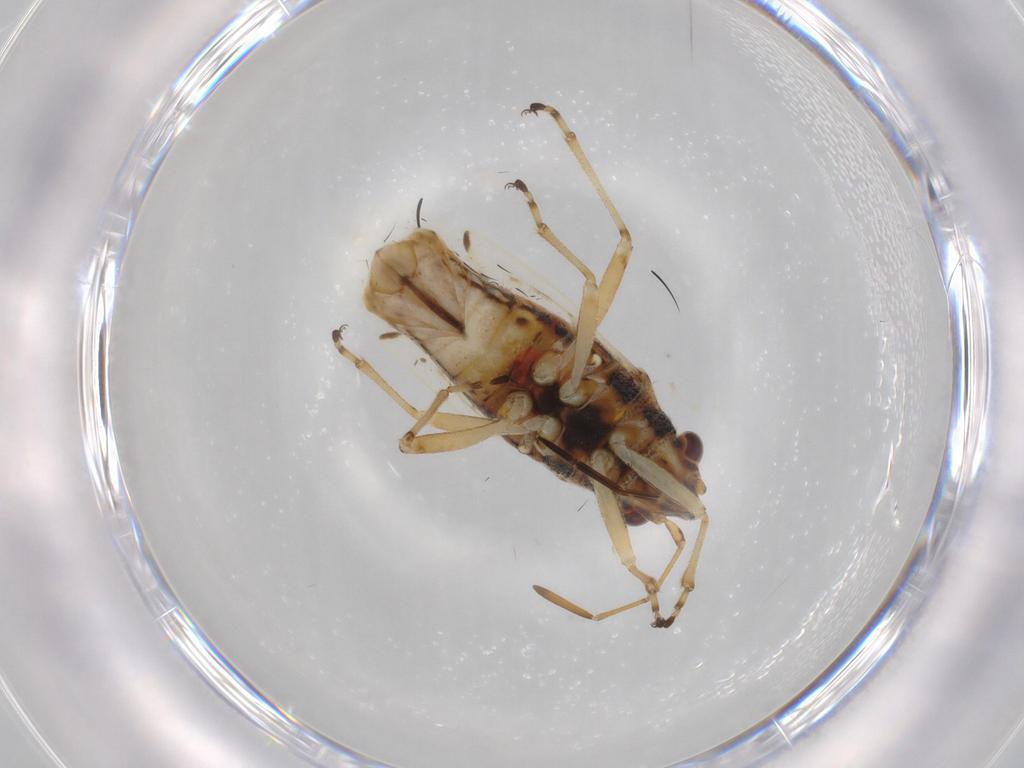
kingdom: Animalia
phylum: Arthropoda
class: Insecta
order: Hemiptera
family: Lygaeidae
